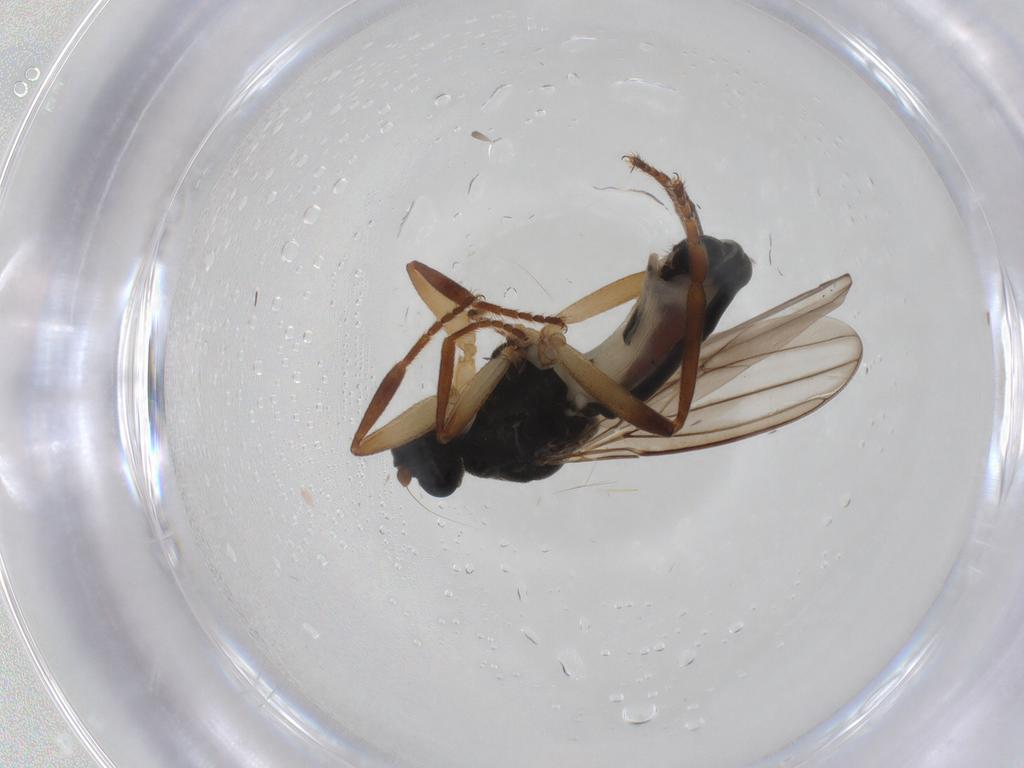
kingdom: Animalia
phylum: Arthropoda
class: Insecta
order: Diptera
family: Sphaeroceridae
